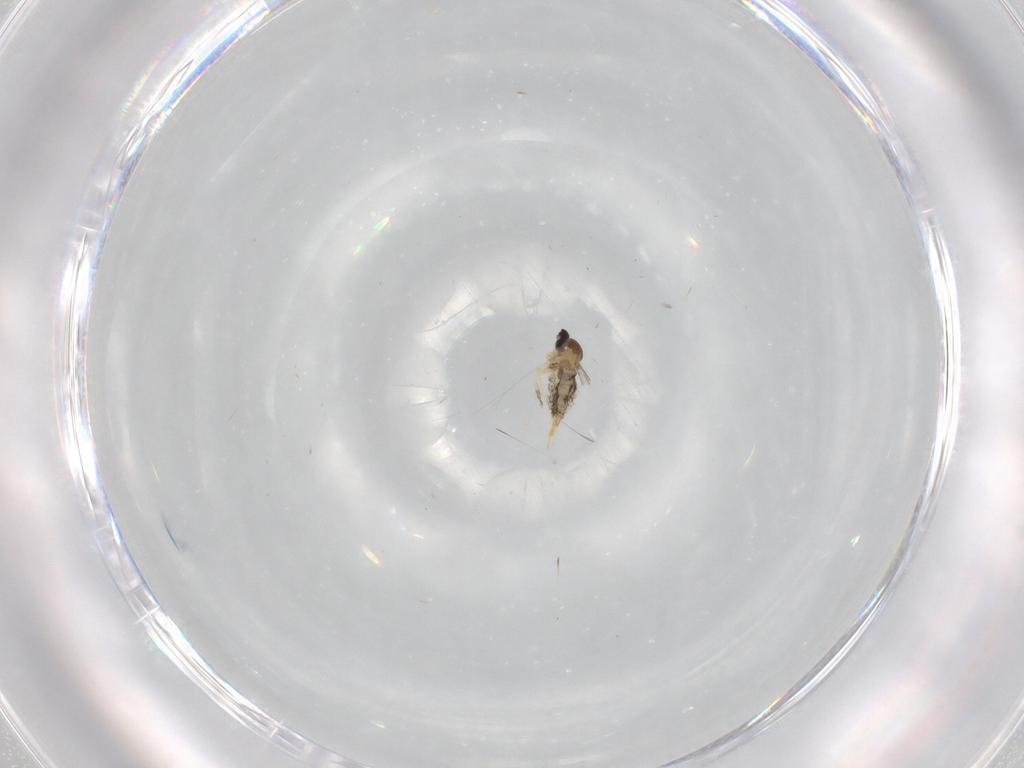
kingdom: Animalia
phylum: Arthropoda
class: Insecta
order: Diptera
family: Cecidomyiidae
